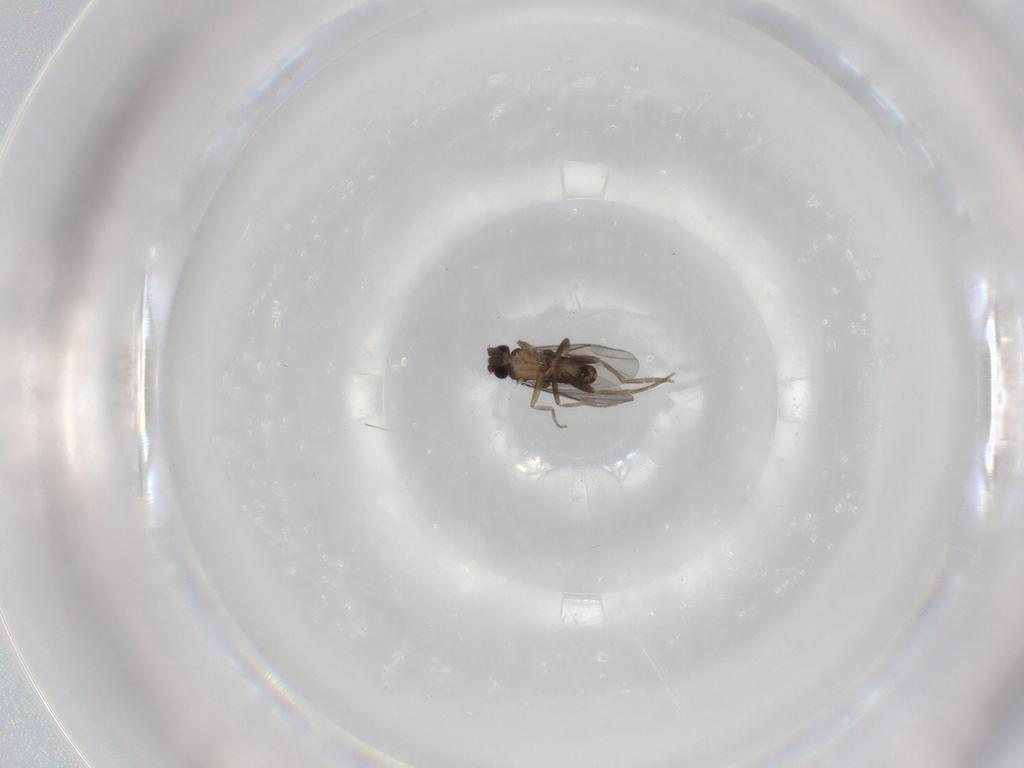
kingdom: Animalia
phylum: Arthropoda
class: Insecta
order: Diptera
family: Phoridae
